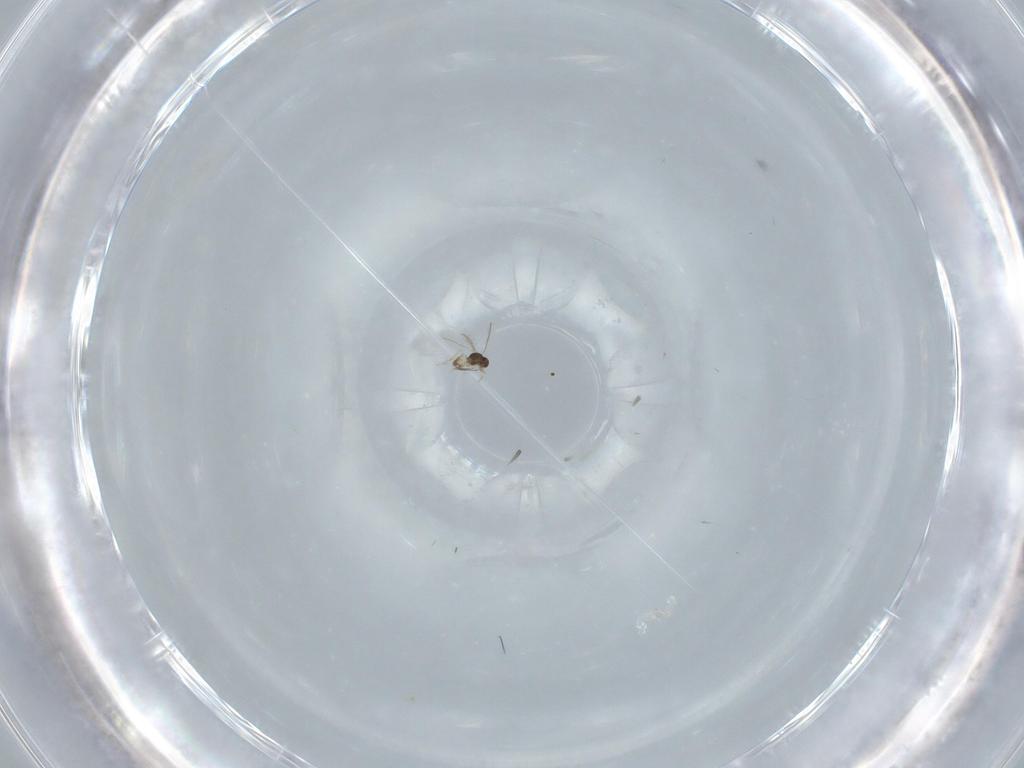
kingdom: Animalia
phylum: Arthropoda
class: Insecta
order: Hymenoptera
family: Mymaridae
